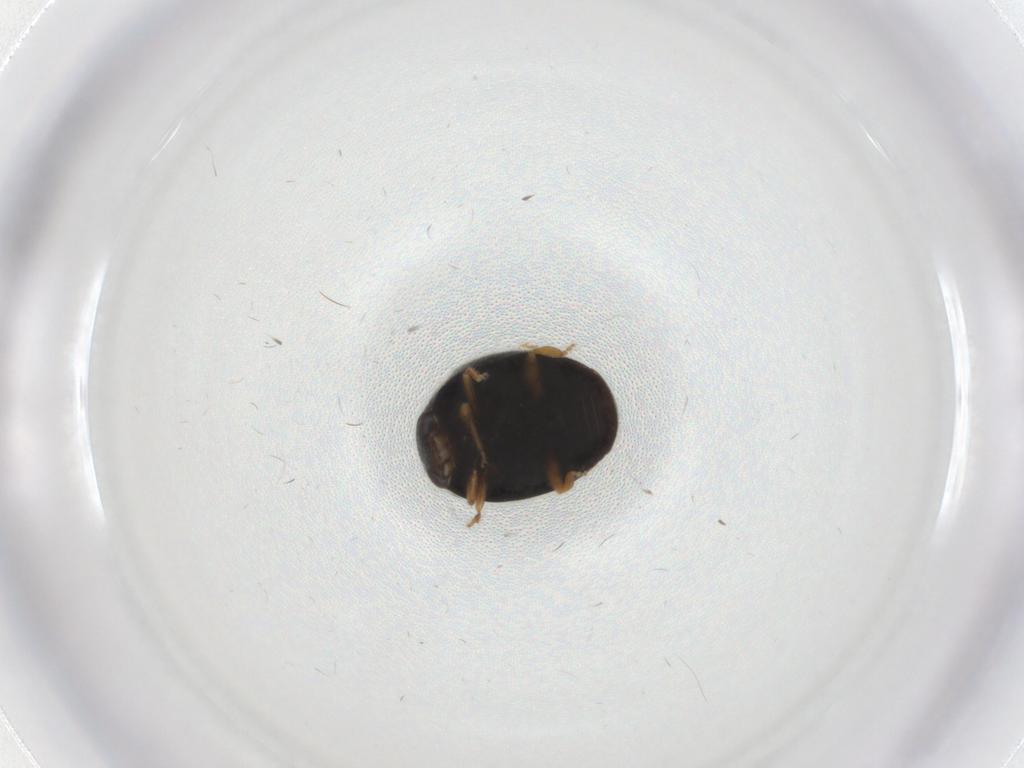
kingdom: Animalia
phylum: Arthropoda
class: Insecta
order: Coleoptera
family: Coccinellidae
